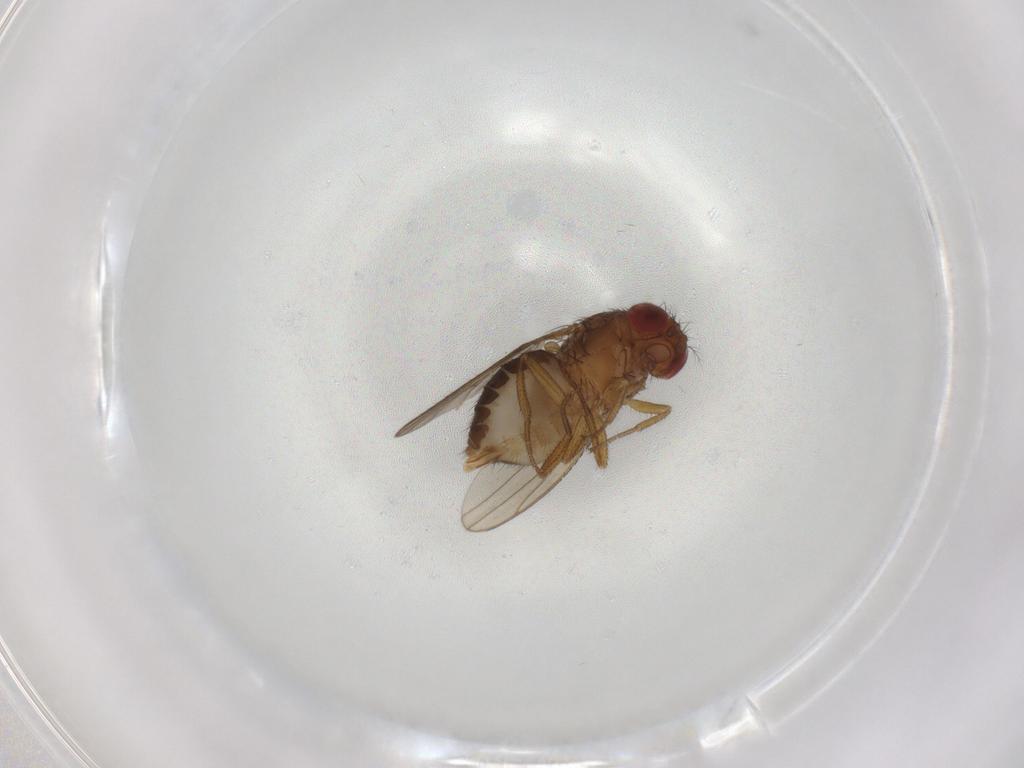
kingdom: Animalia
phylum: Arthropoda
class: Insecta
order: Diptera
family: Drosophilidae
